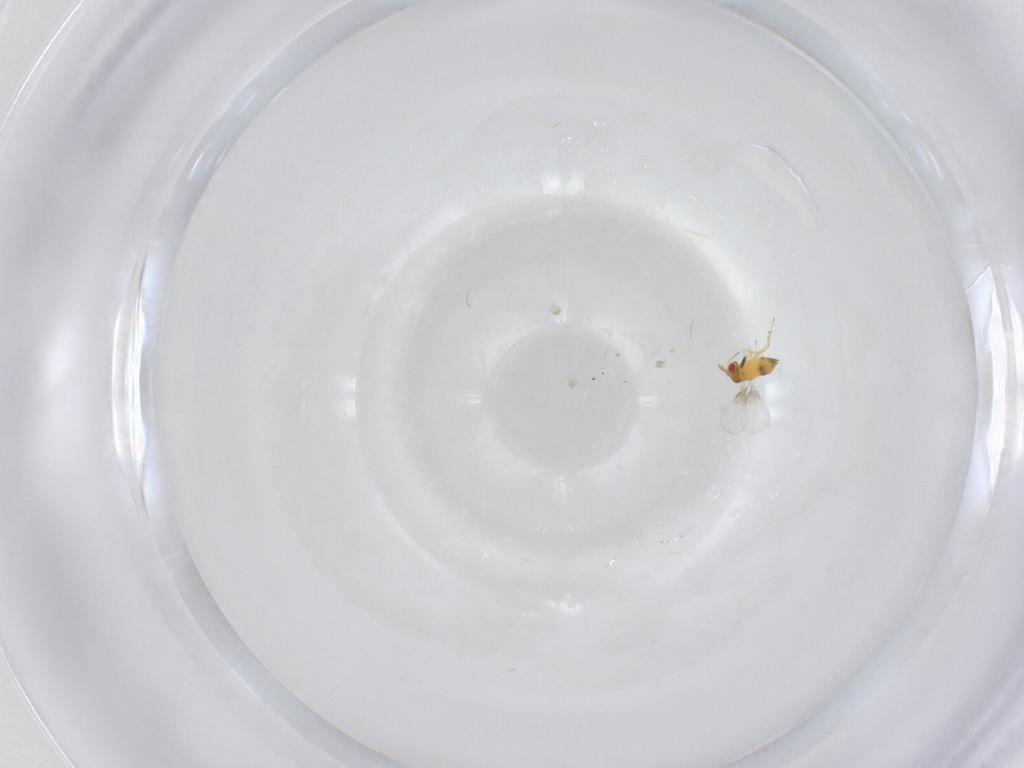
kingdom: Animalia
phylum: Arthropoda
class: Insecta
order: Hymenoptera
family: Trichogrammatidae
